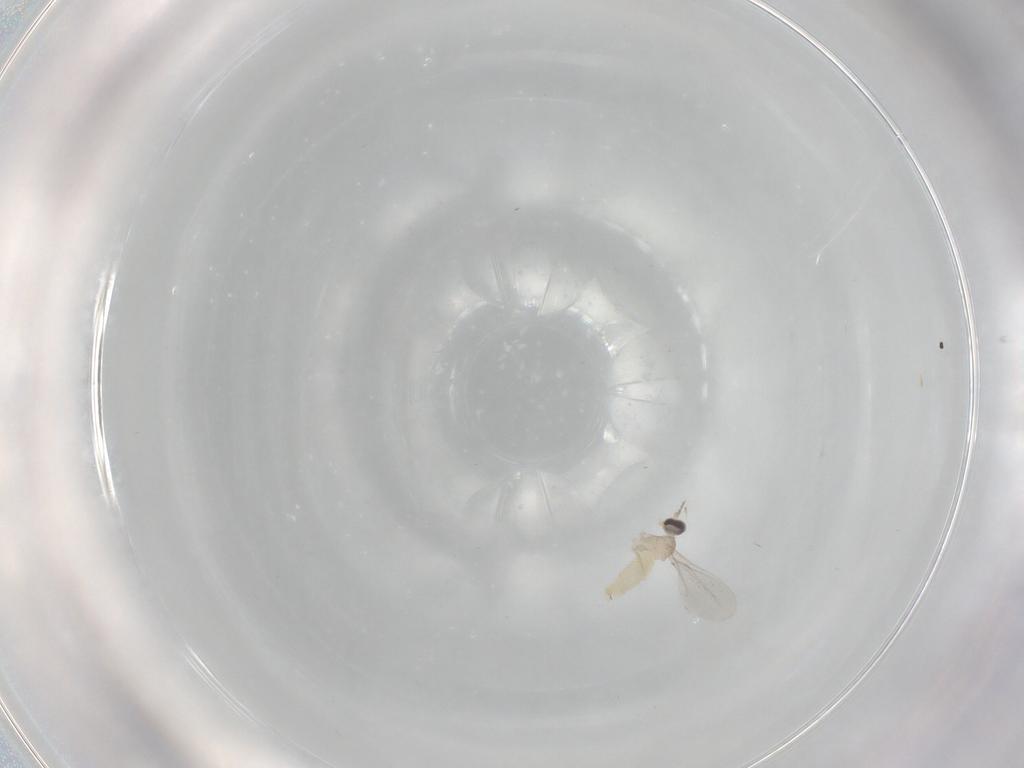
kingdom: Animalia
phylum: Arthropoda
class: Insecta
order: Diptera
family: Cecidomyiidae
